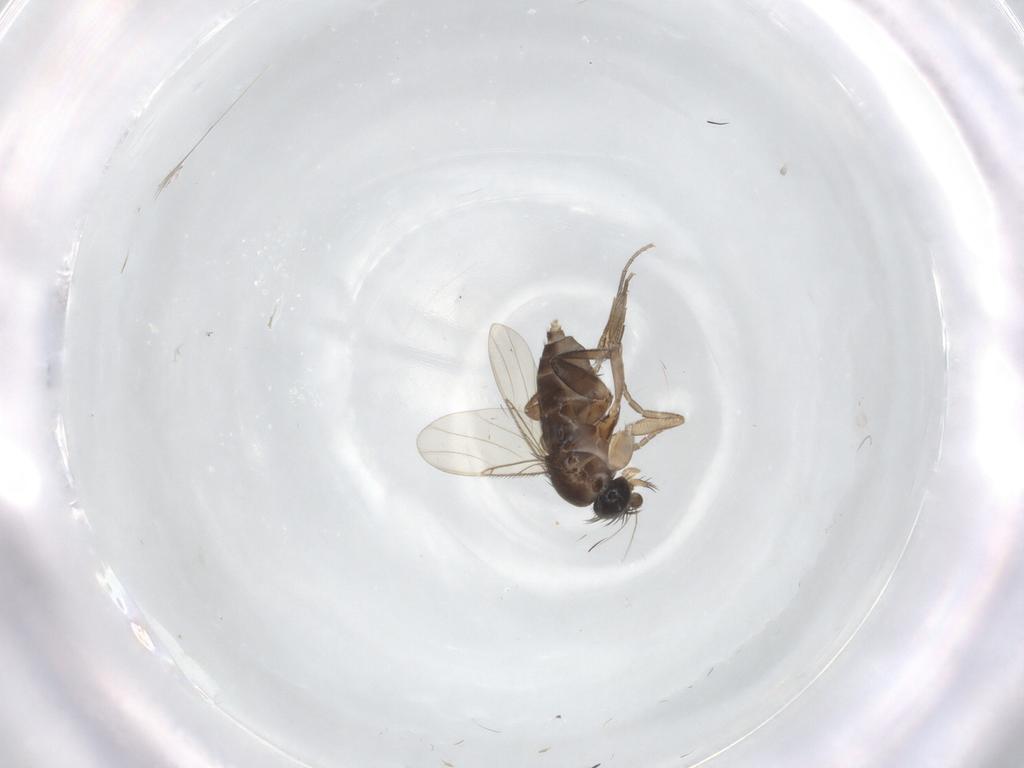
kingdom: Animalia
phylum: Arthropoda
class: Insecta
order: Diptera
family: Phoridae
